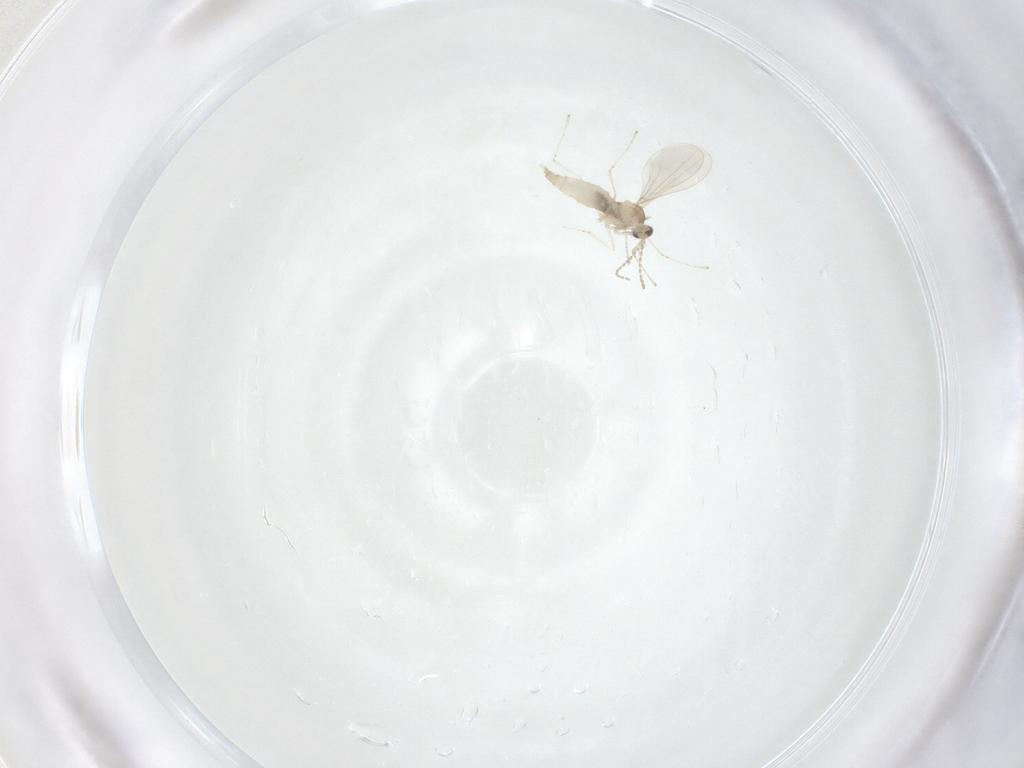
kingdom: Animalia
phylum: Arthropoda
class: Insecta
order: Diptera
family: Cecidomyiidae
